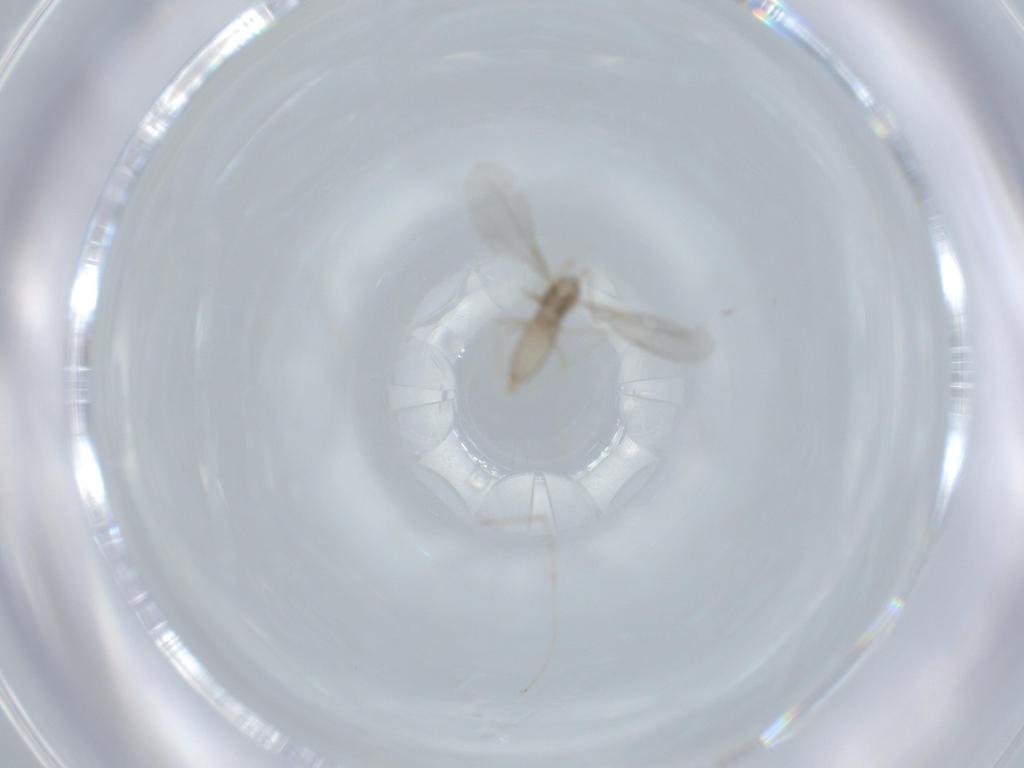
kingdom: Animalia
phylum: Arthropoda
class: Insecta
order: Diptera
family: Cecidomyiidae
